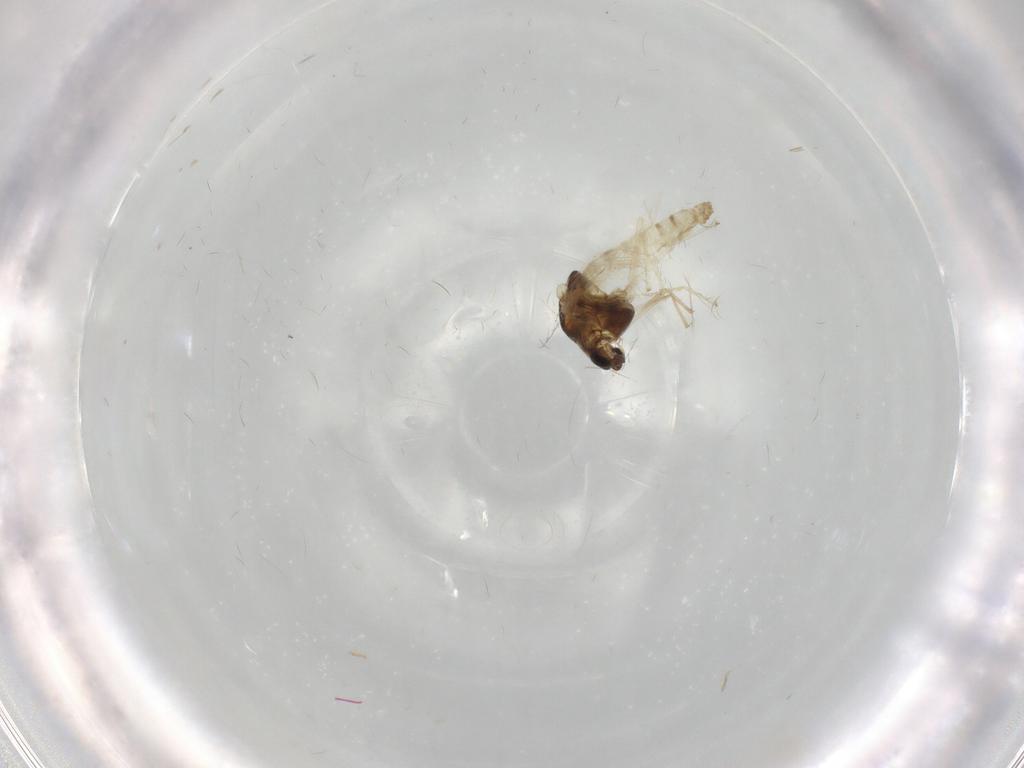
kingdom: Animalia
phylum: Arthropoda
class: Insecta
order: Diptera
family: Chironomidae
